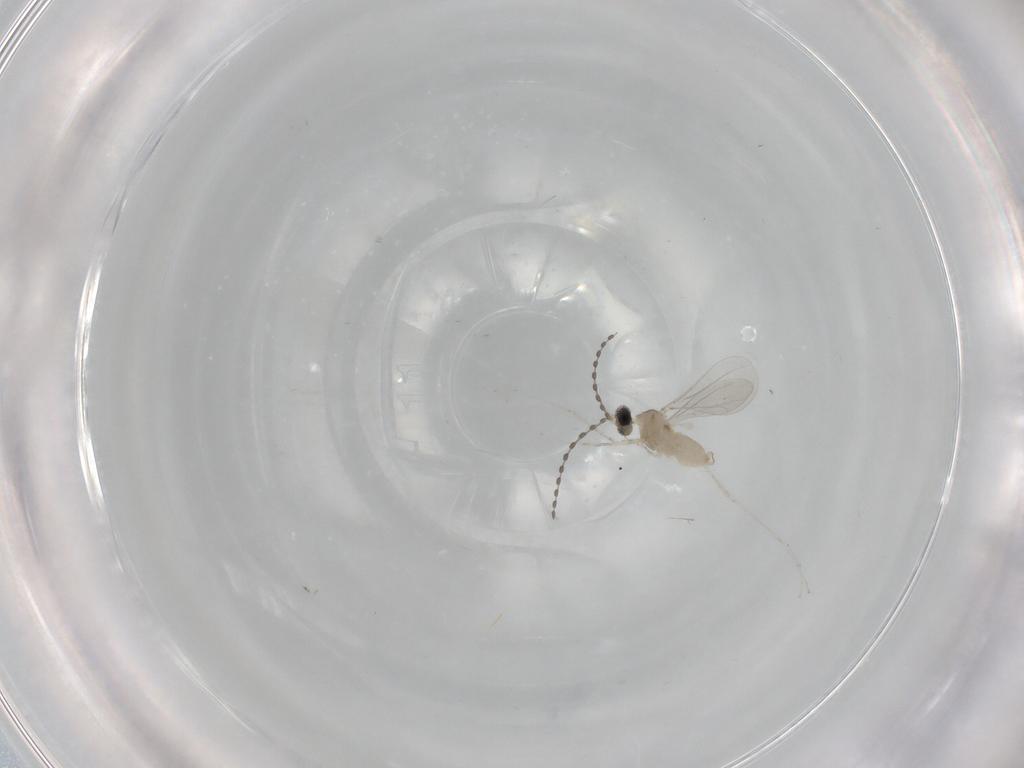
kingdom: Animalia
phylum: Arthropoda
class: Insecta
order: Diptera
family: Cecidomyiidae
